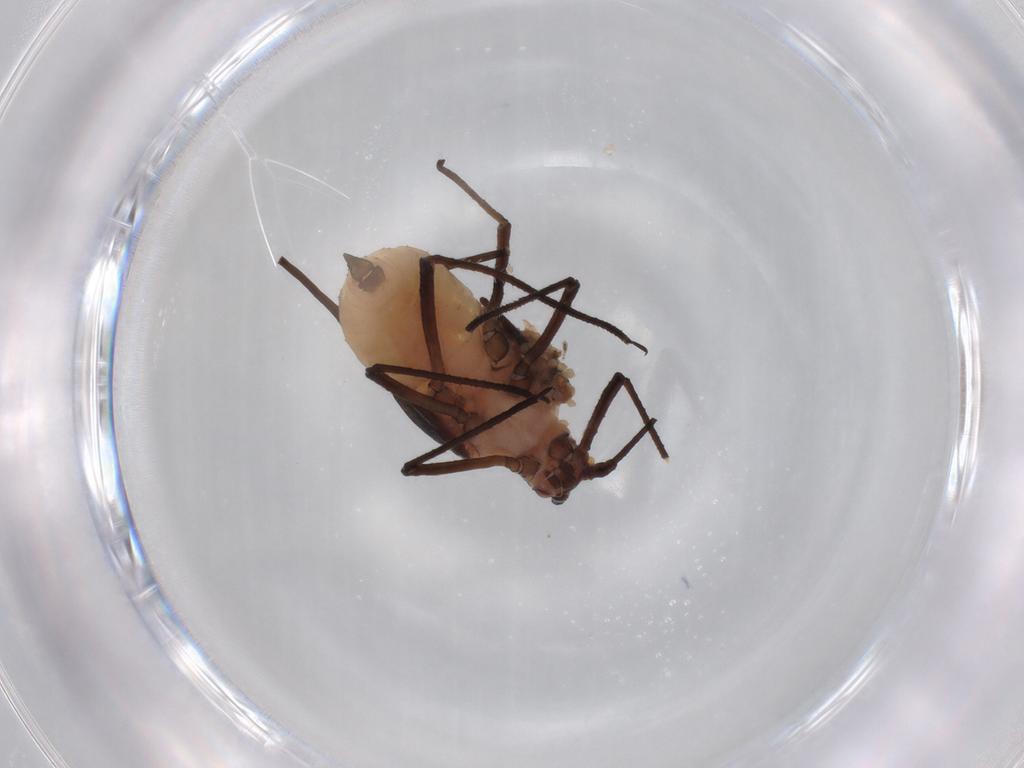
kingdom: Animalia
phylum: Arthropoda
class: Insecta
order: Hemiptera
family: Aphididae
